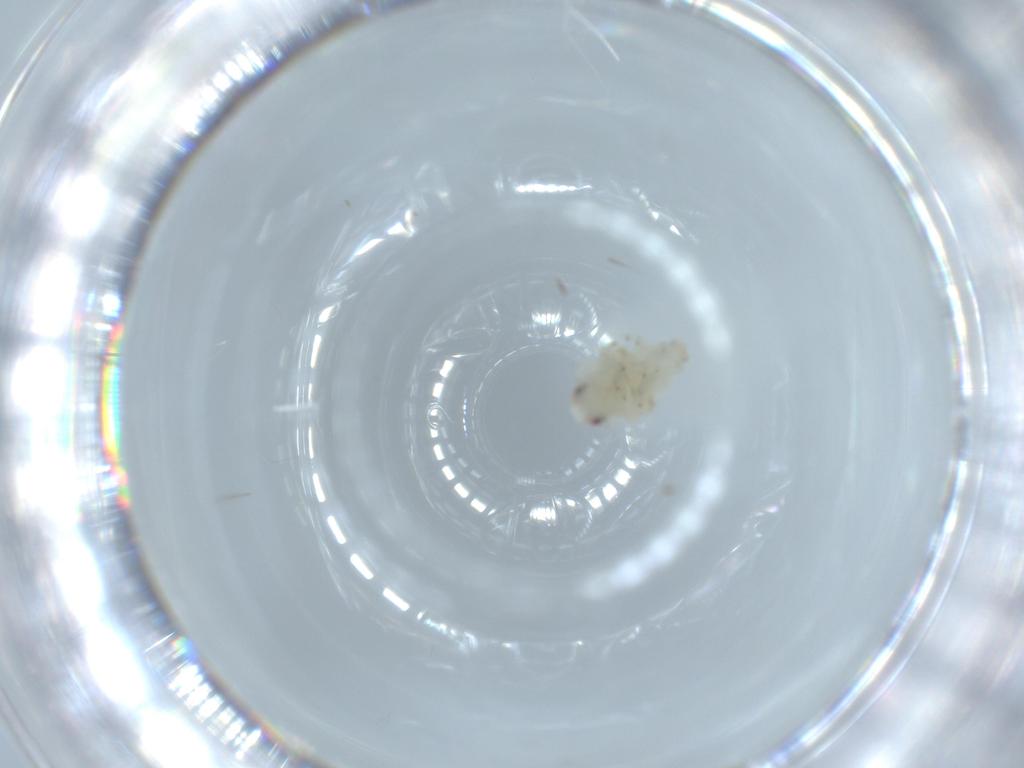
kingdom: Animalia
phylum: Arthropoda
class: Insecta
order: Hemiptera
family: Nogodinidae
